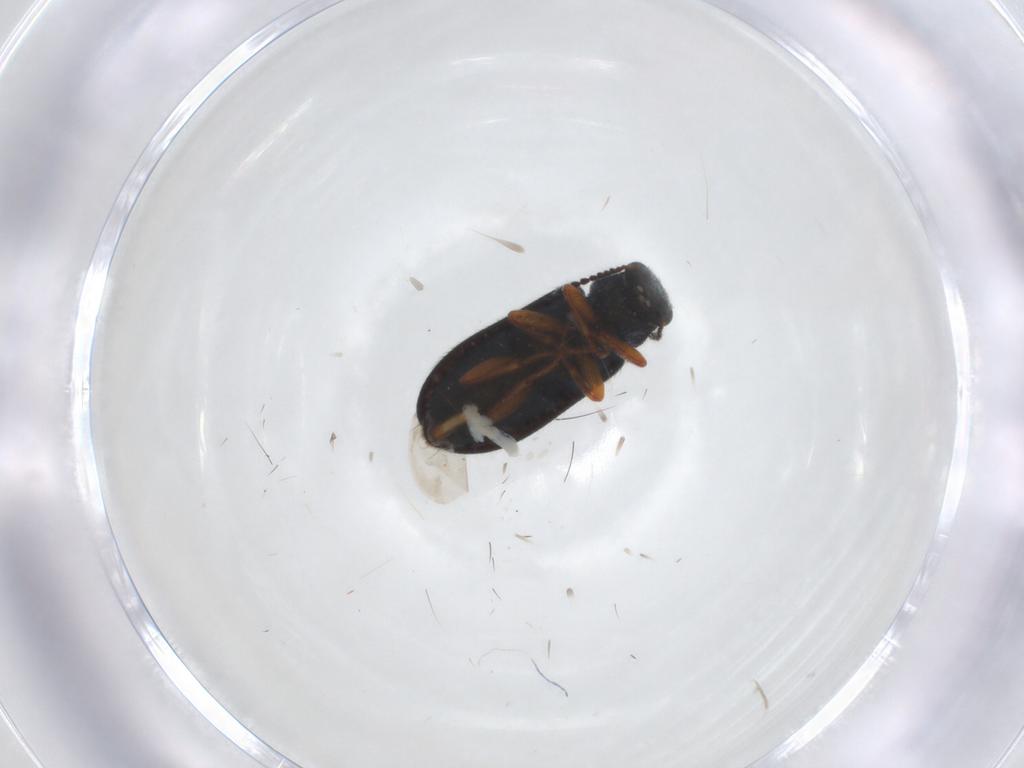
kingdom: Animalia
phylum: Arthropoda
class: Insecta
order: Coleoptera
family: Melyridae
